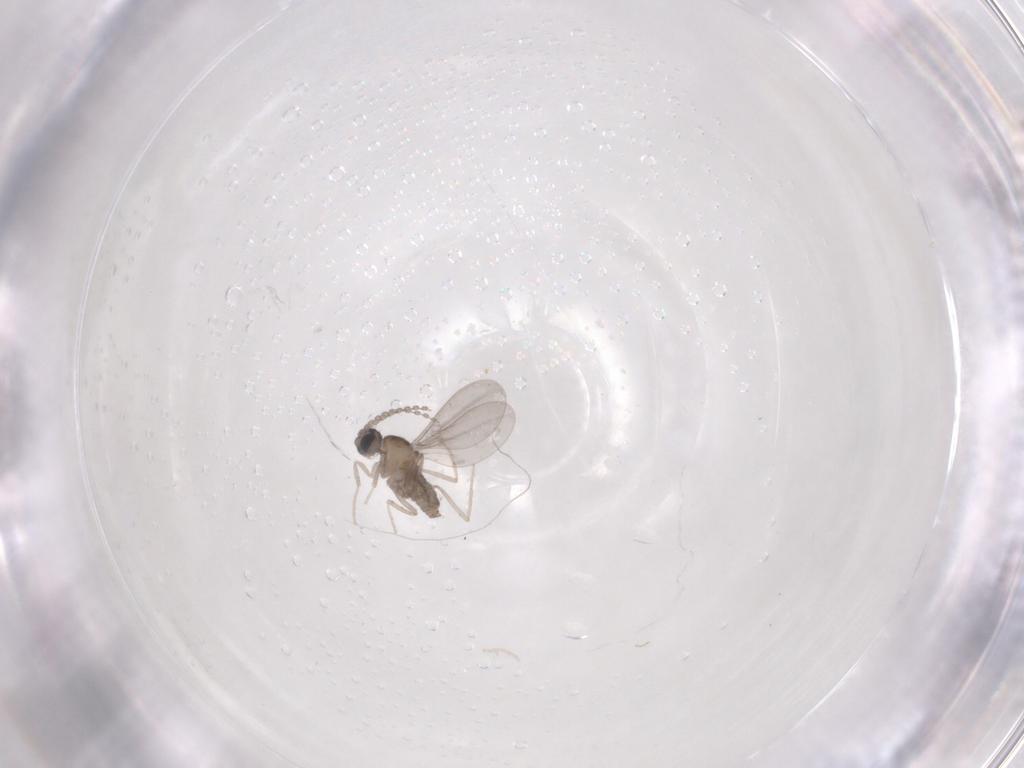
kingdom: Animalia
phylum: Arthropoda
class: Insecta
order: Diptera
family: Cecidomyiidae
